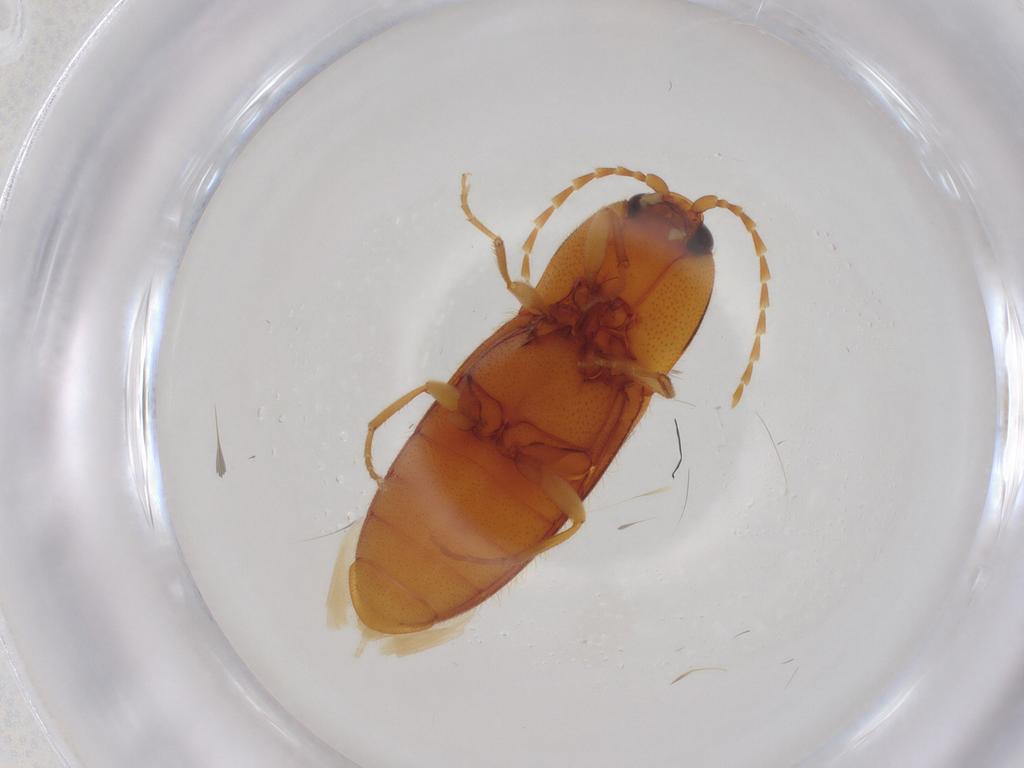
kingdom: Animalia
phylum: Arthropoda
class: Insecta
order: Coleoptera
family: Elateridae
